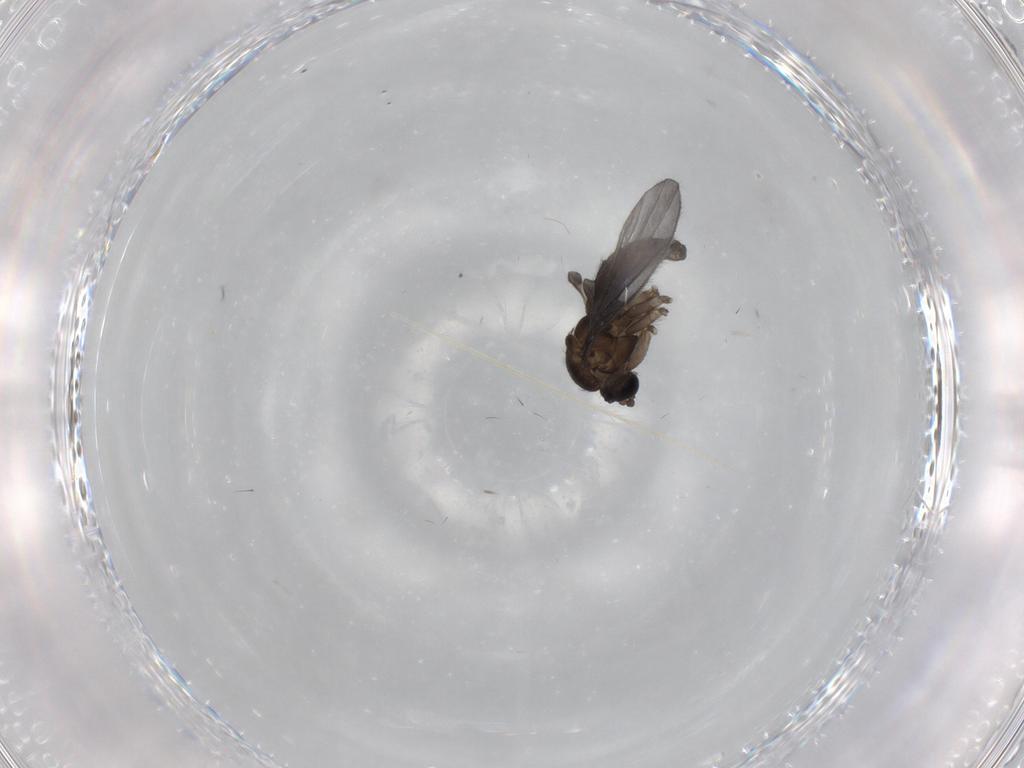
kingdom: Animalia
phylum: Arthropoda
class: Insecta
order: Diptera
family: Sciaridae
